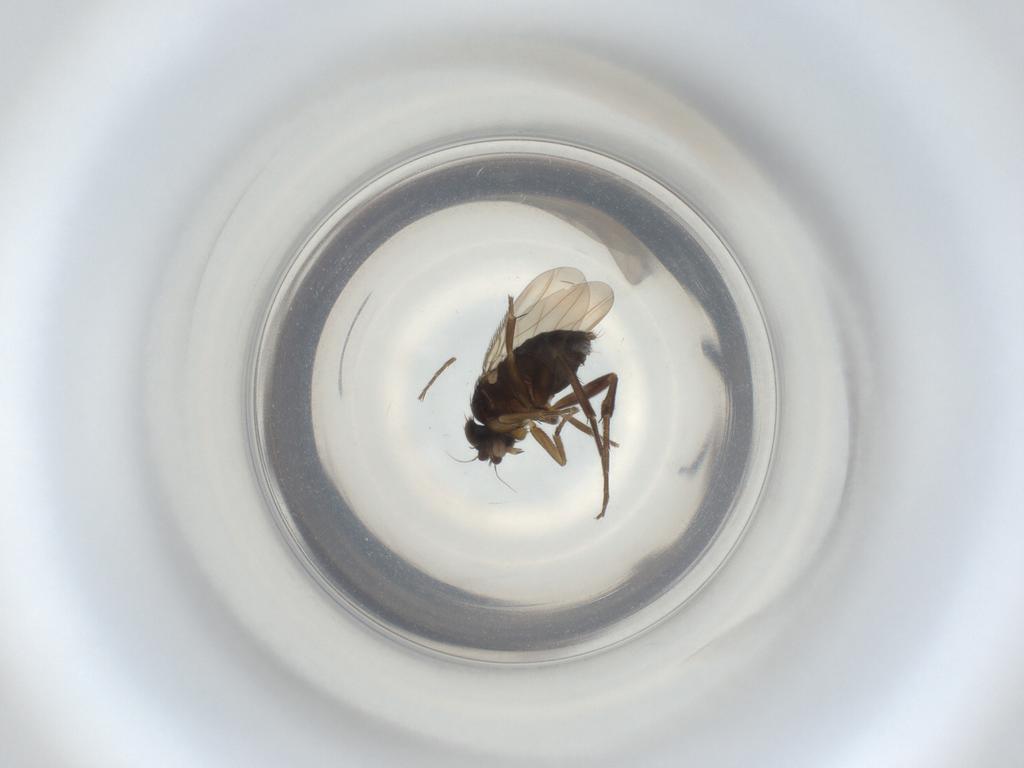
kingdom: Animalia
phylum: Arthropoda
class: Insecta
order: Diptera
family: Phoridae
